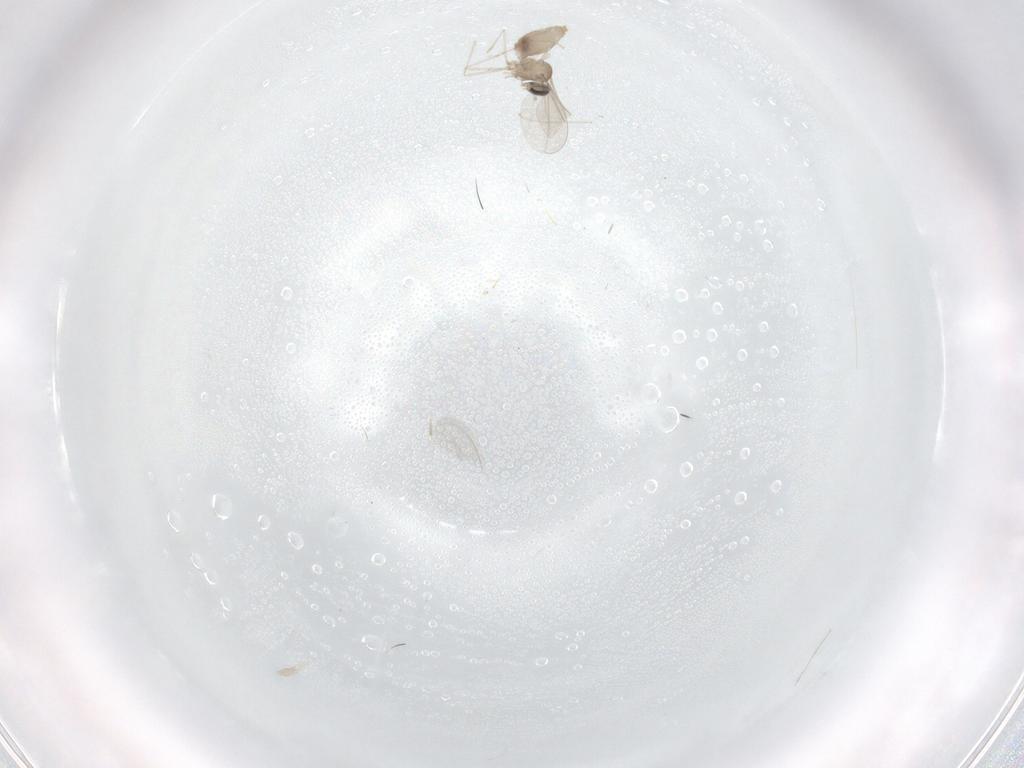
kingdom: Animalia
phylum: Arthropoda
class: Insecta
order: Diptera
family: Cecidomyiidae
